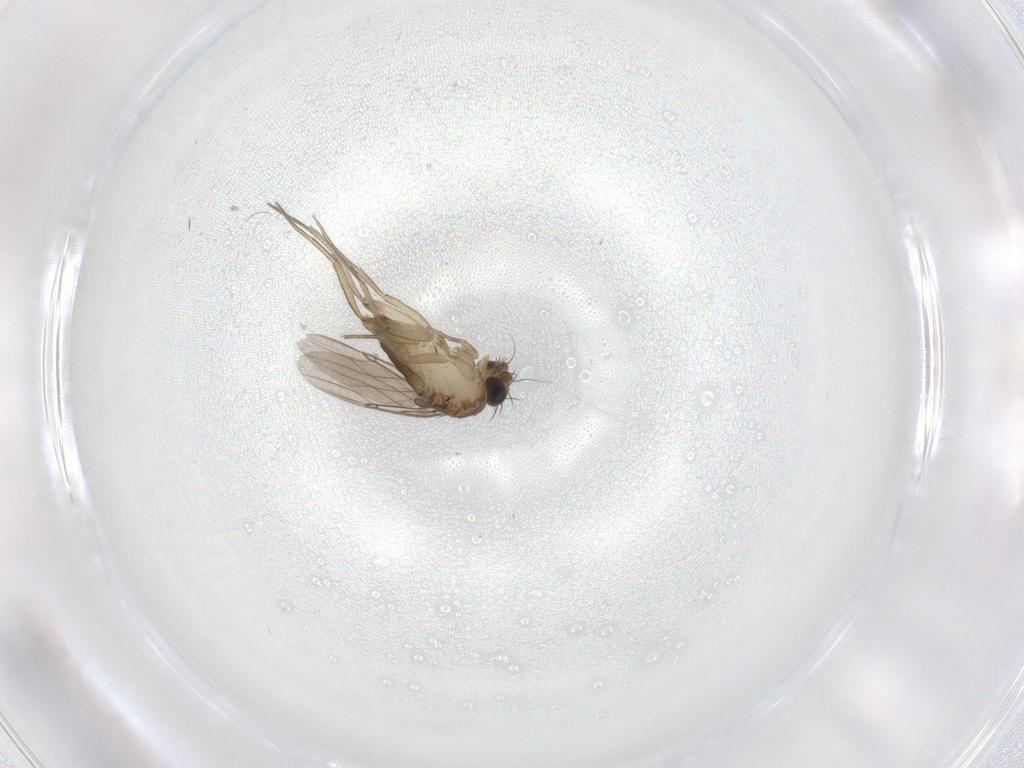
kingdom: Animalia
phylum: Arthropoda
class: Insecta
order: Diptera
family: Phoridae
